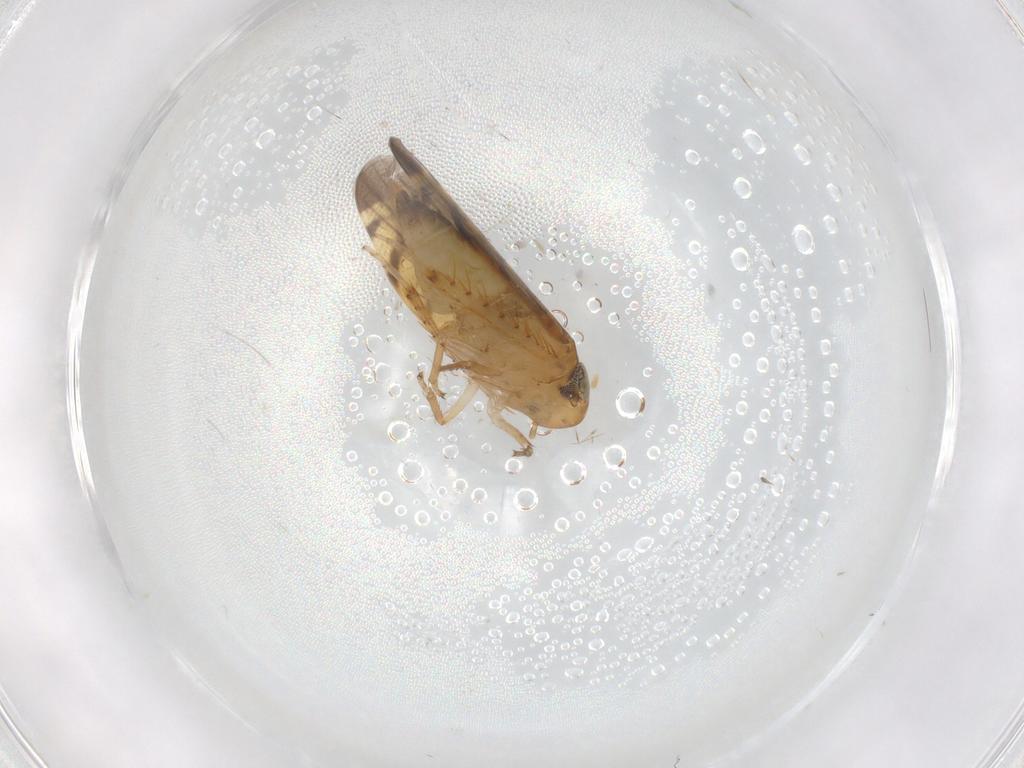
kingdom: Animalia
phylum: Arthropoda
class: Insecta
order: Hemiptera
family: Cicadellidae
